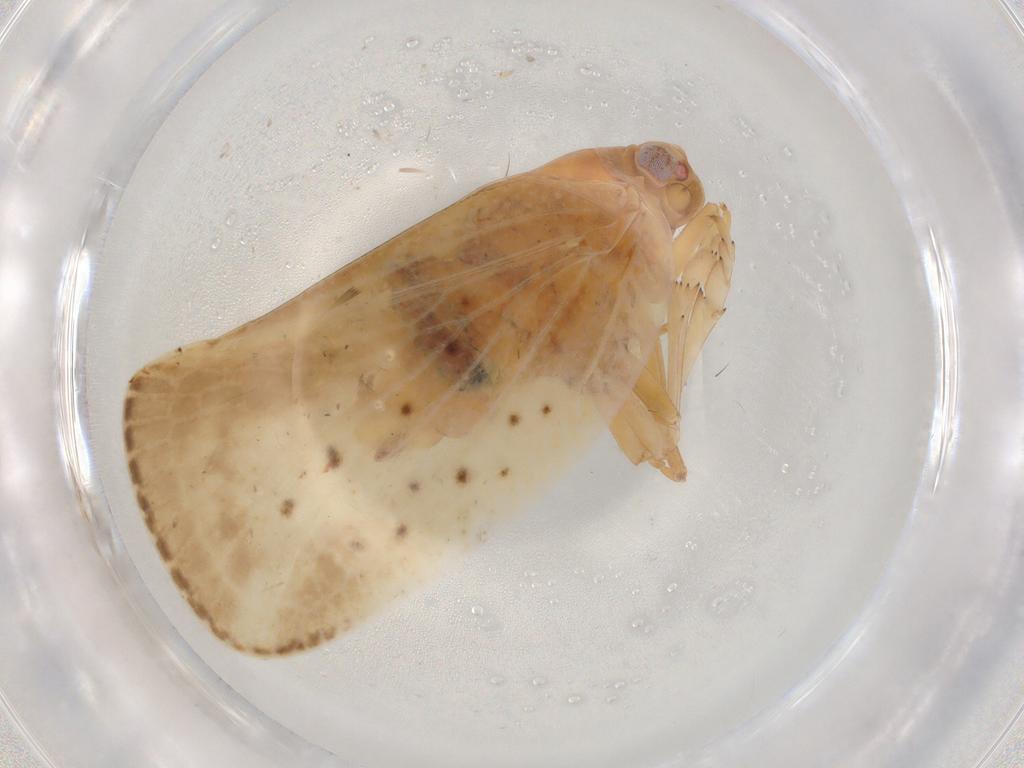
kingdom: Animalia
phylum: Arthropoda
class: Insecta
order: Hemiptera
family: Flatidae
